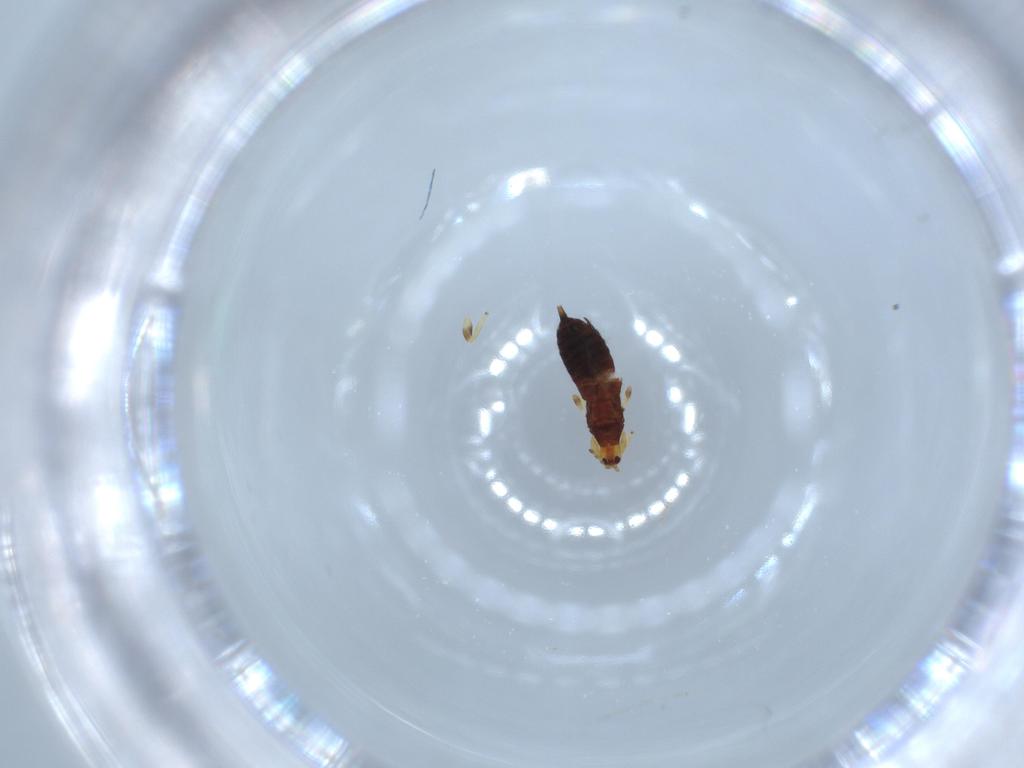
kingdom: Animalia
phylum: Arthropoda
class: Insecta
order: Thysanoptera
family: Phlaeothripidae
